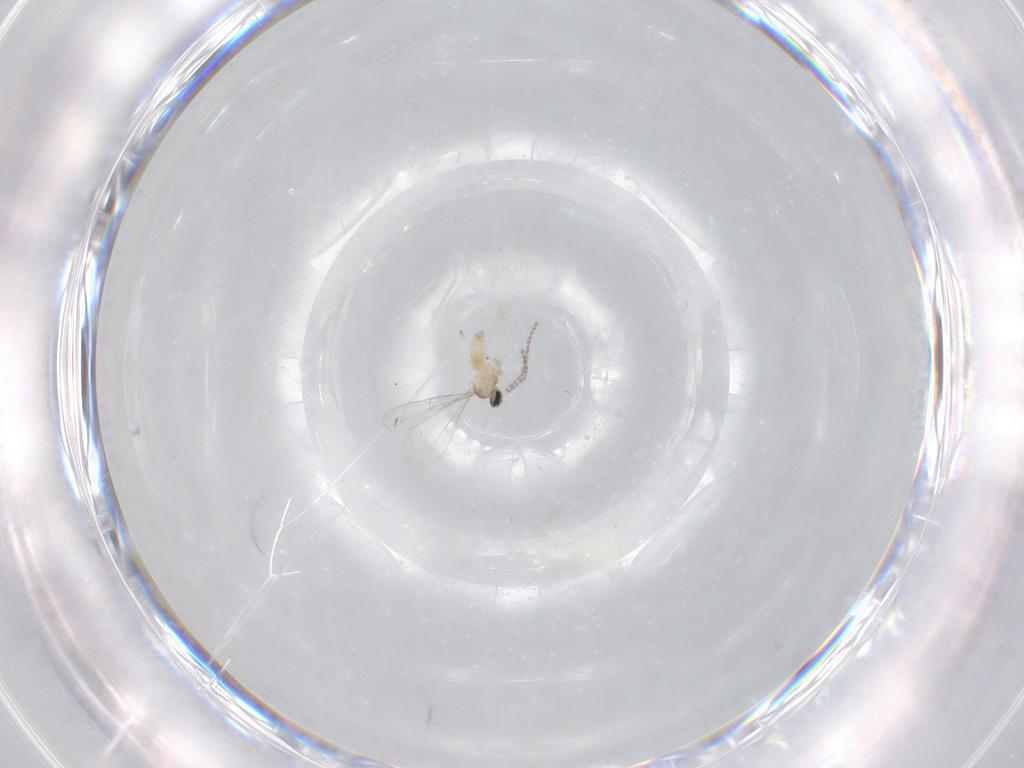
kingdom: Animalia
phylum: Arthropoda
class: Insecta
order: Diptera
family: Cecidomyiidae
